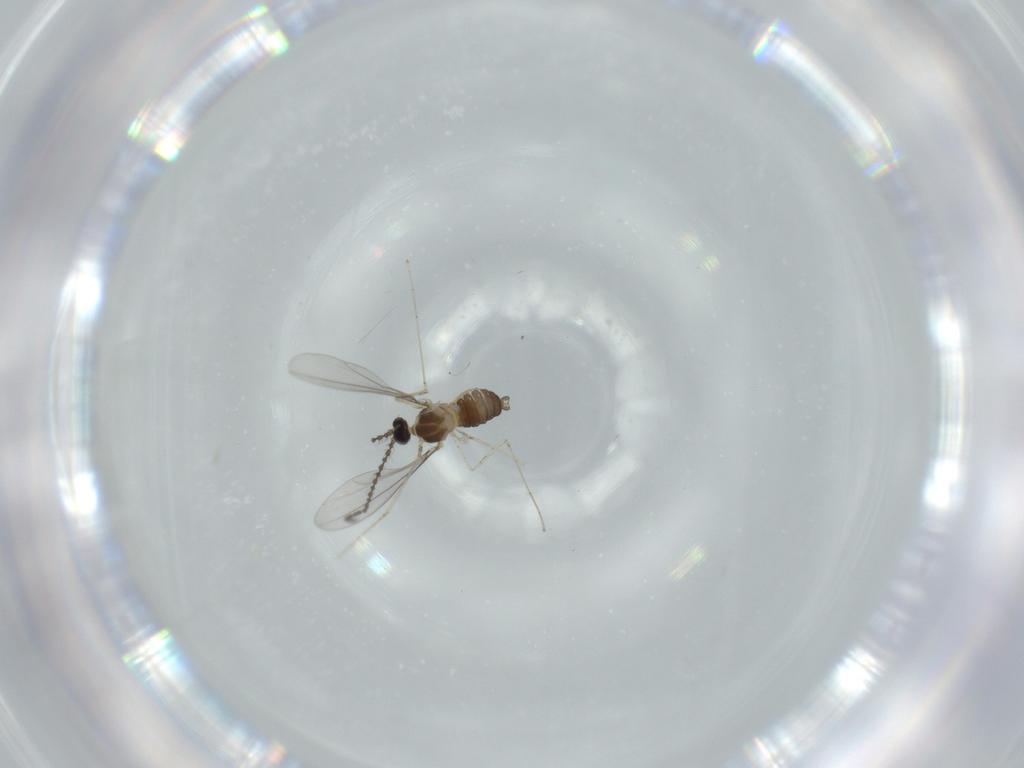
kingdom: Animalia
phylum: Arthropoda
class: Insecta
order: Diptera
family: Cecidomyiidae
